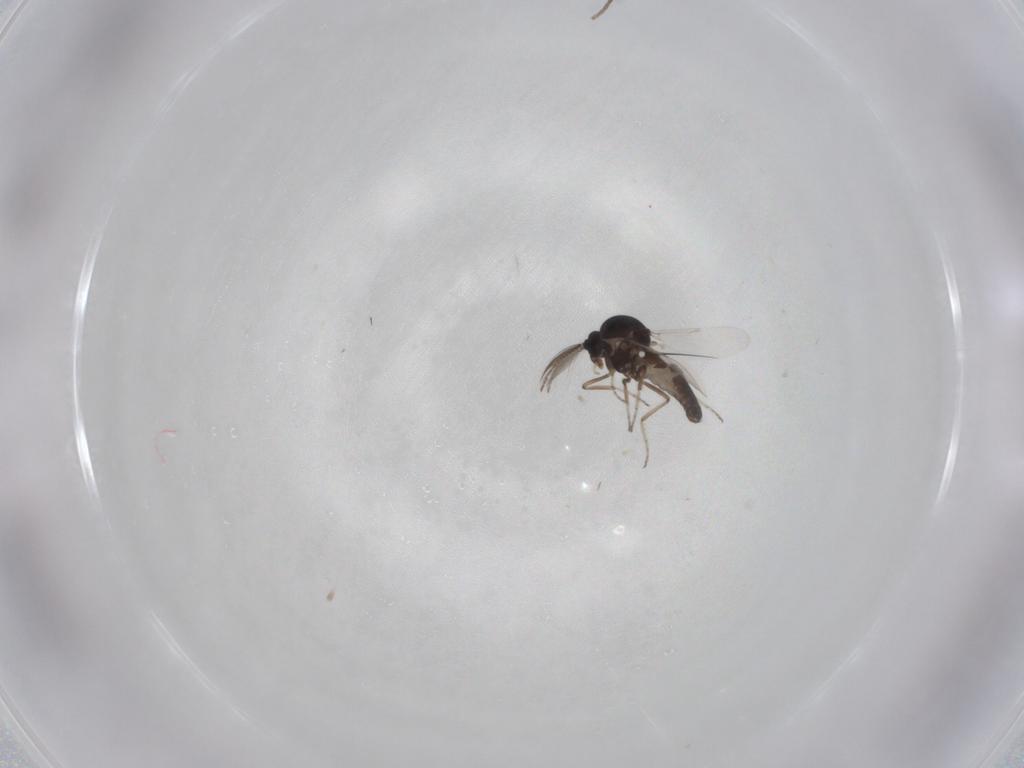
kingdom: Animalia
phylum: Arthropoda
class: Insecta
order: Diptera
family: Ceratopogonidae
